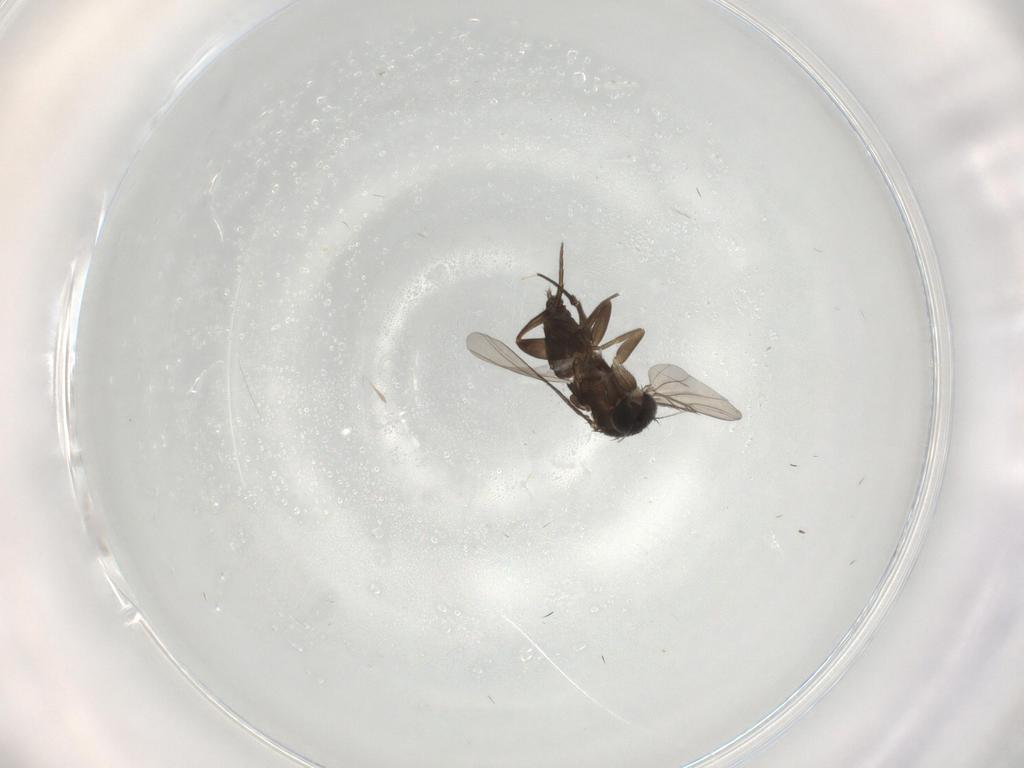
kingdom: Animalia
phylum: Arthropoda
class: Insecta
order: Diptera
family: Phoridae
